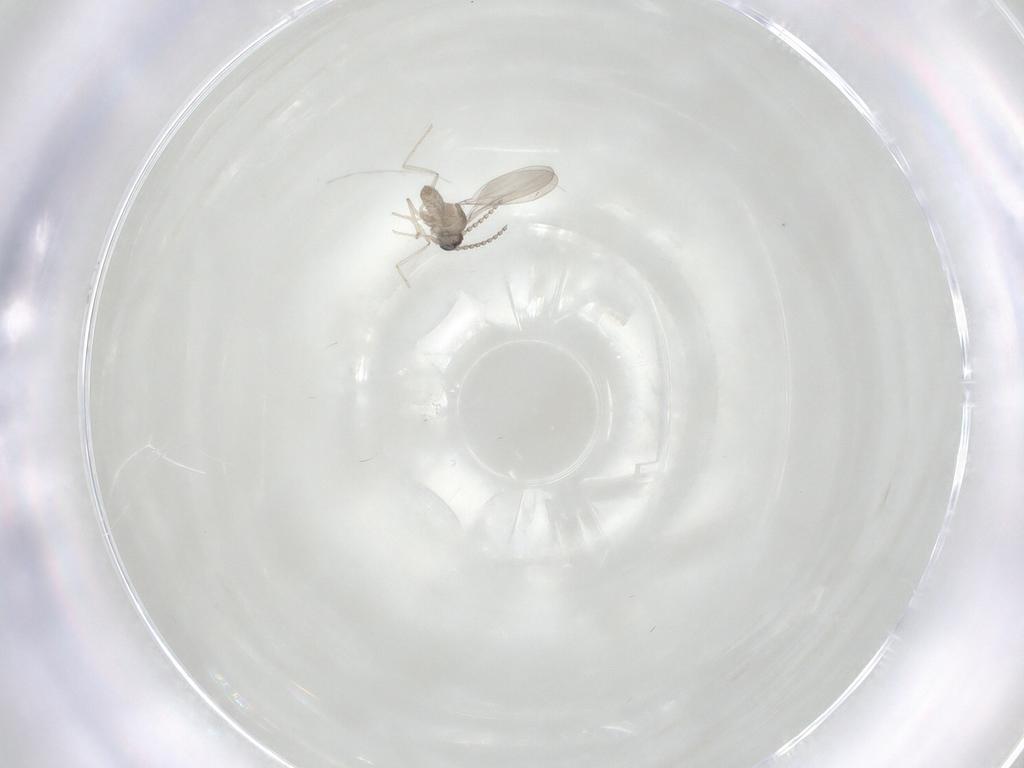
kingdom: Animalia
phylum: Arthropoda
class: Insecta
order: Diptera
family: Cecidomyiidae
